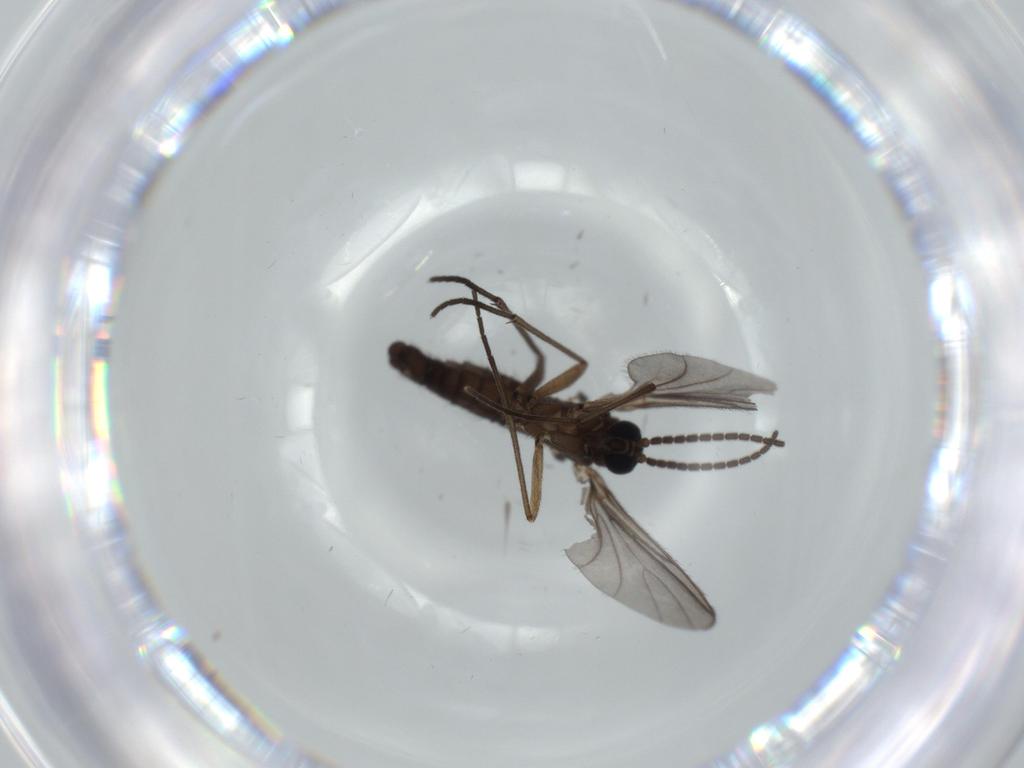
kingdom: Animalia
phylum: Arthropoda
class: Insecta
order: Diptera
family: Sciaridae
